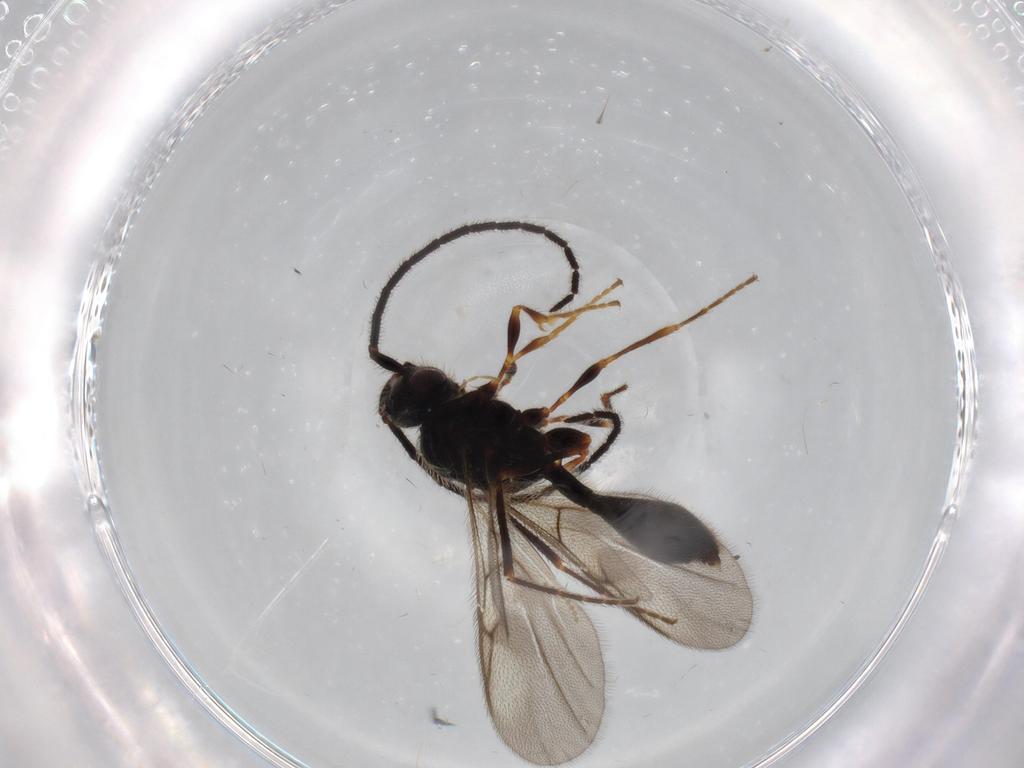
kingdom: Animalia
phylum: Arthropoda
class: Insecta
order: Hymenoptera
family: Diapriidae
